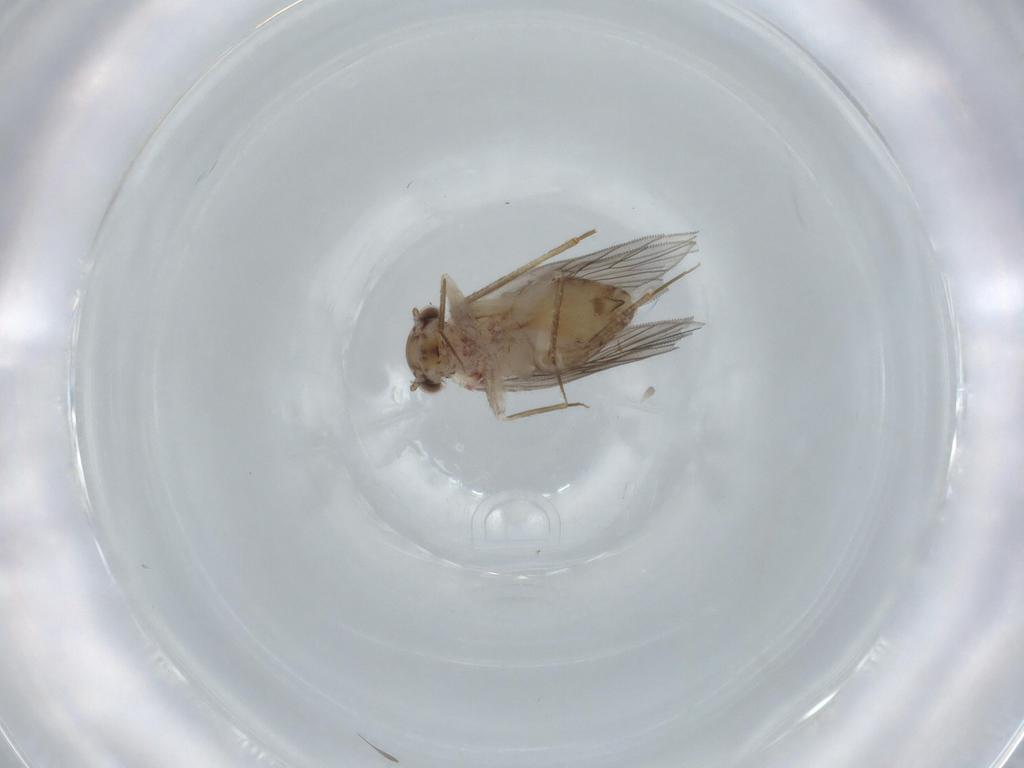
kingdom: Animalia
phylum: Arthropoda
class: Insecta
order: Psocodea
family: Lepidopsocidae
